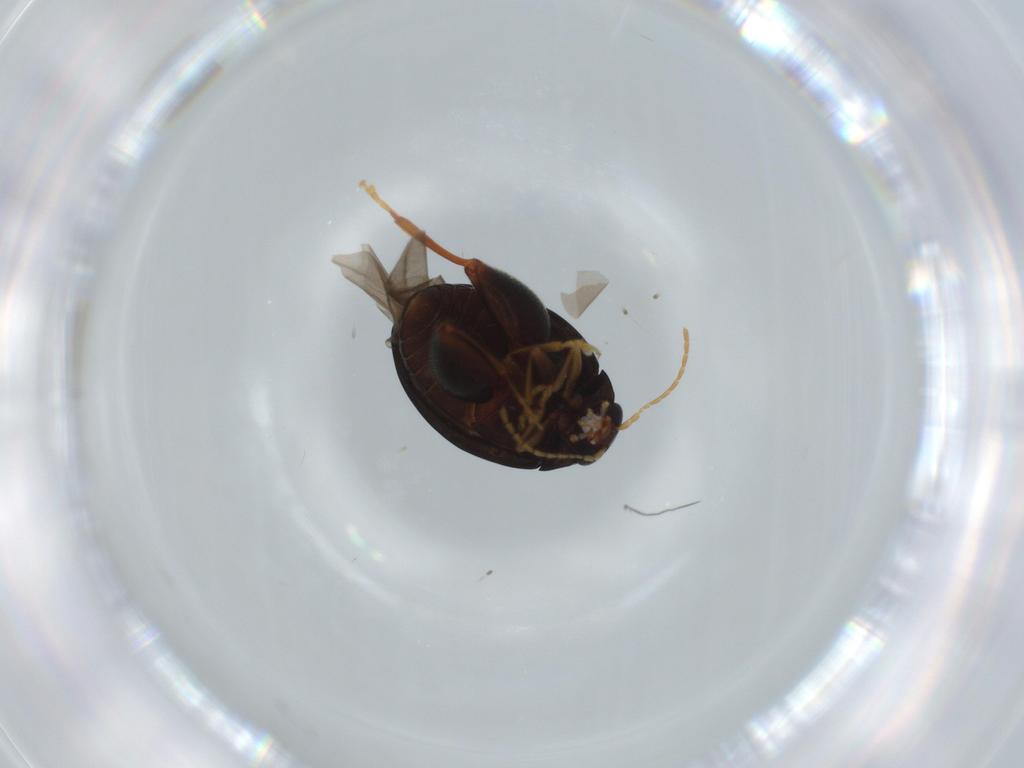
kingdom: Animalia
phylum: Arthropoda
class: Insecta
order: Coleoptera
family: Chrysomelidae
